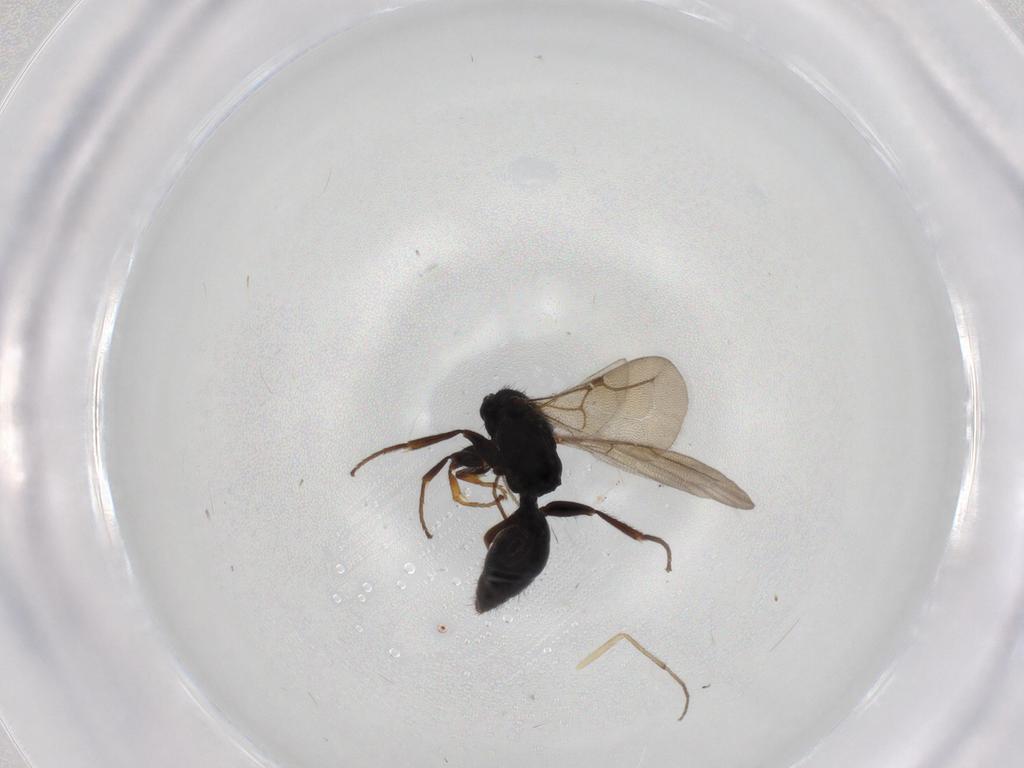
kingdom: Animalia
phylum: Arthropoda
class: Insecta
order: Hymenoptera
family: Bethylidae
